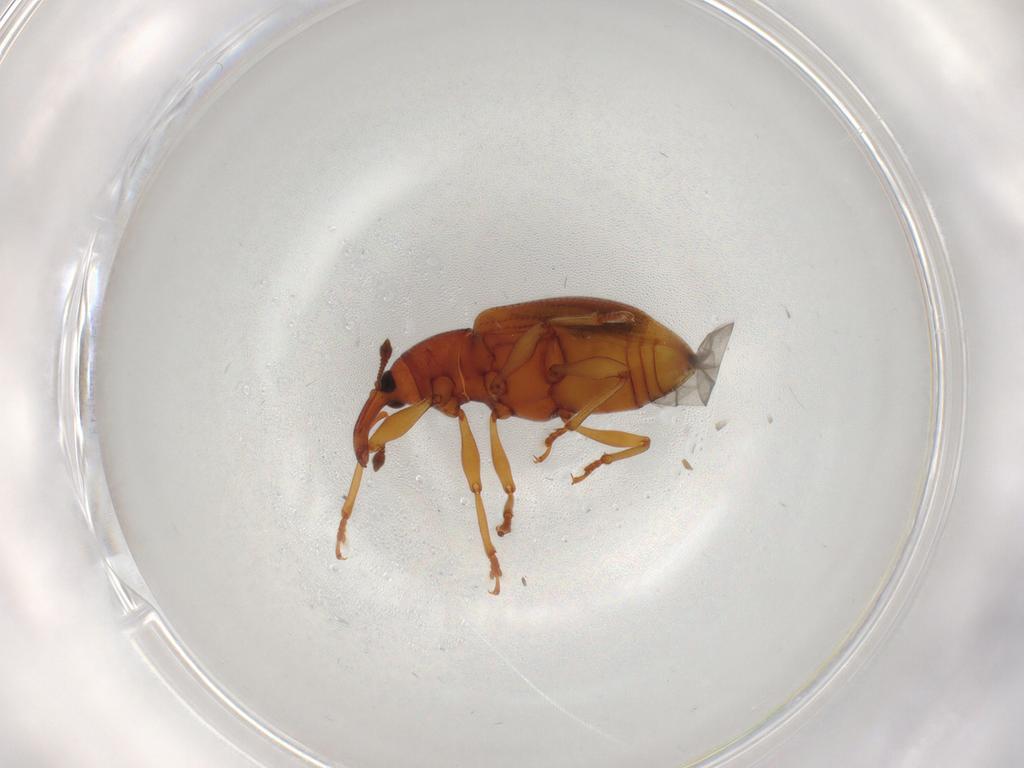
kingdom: Animalia
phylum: Arthropoda
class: Insecta
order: Coleoptera
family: Curculionidae
